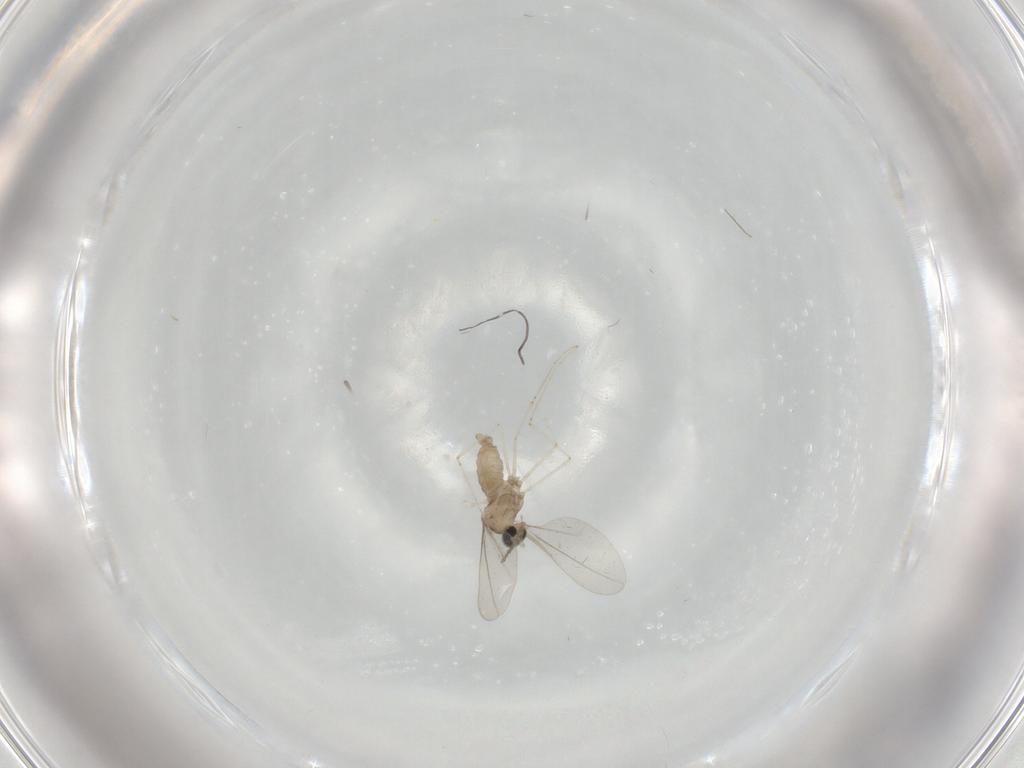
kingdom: Animalia
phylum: Arthropoda
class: Insecta
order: Diptera
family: Chironomidae
